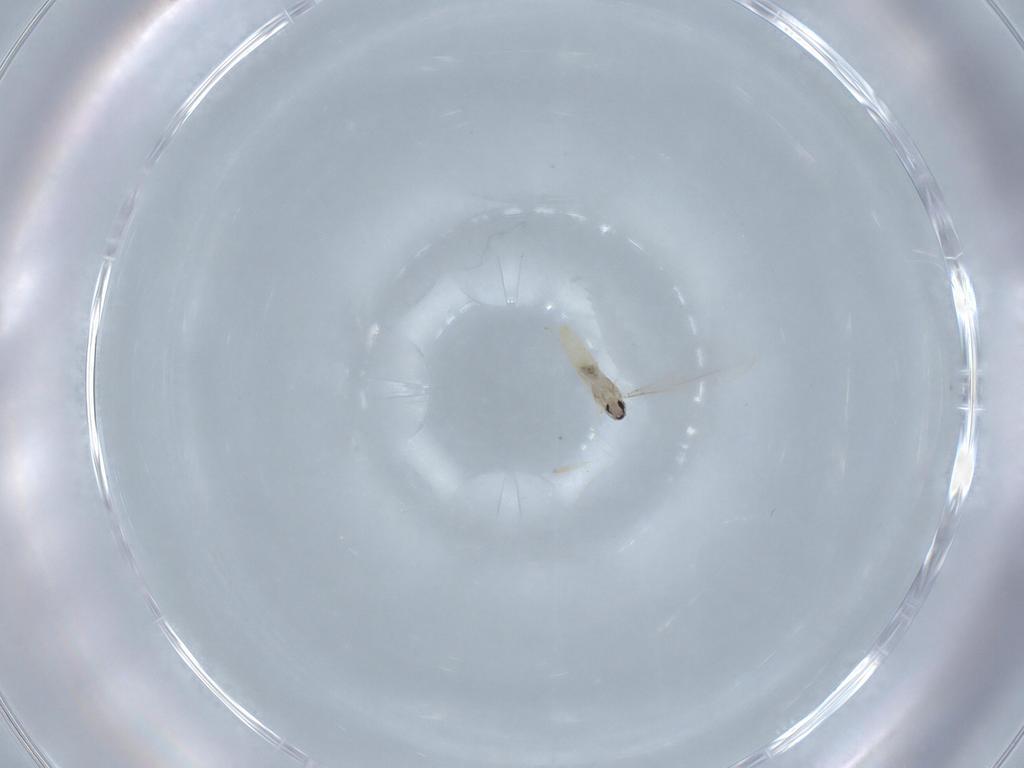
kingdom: Animalia
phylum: Arthropoda
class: Insecta
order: Diptera
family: Cecidomyiidae
